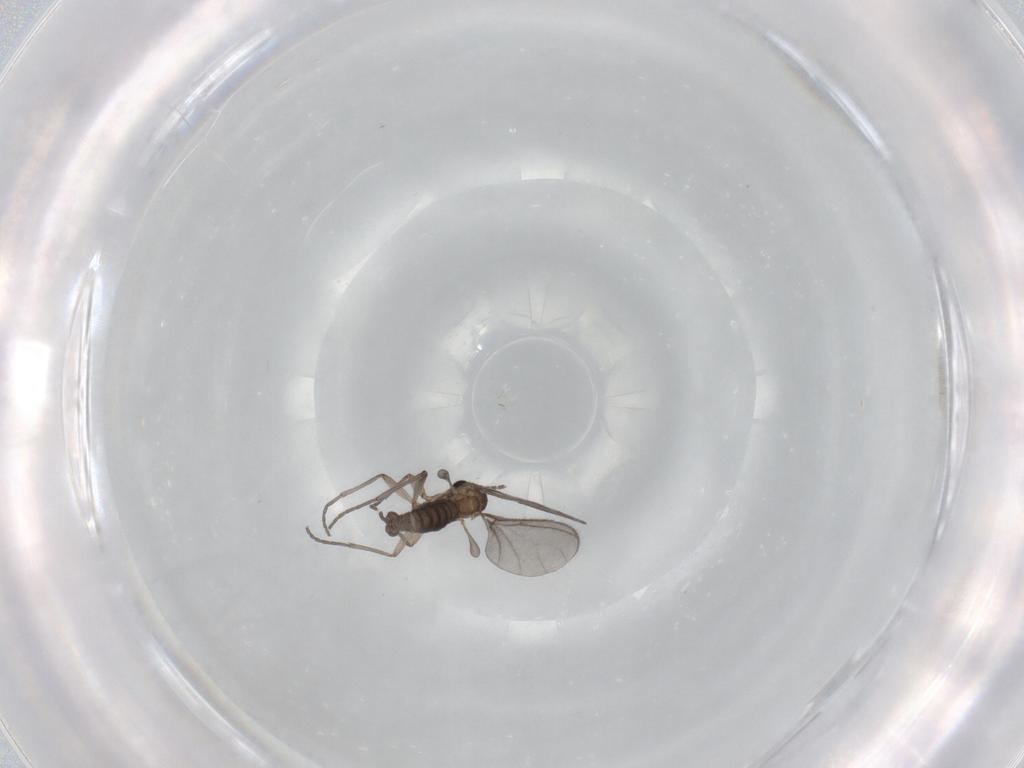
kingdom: Animalia
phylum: Arthropoda
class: Insecta
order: Diptera
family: Sciaridae
